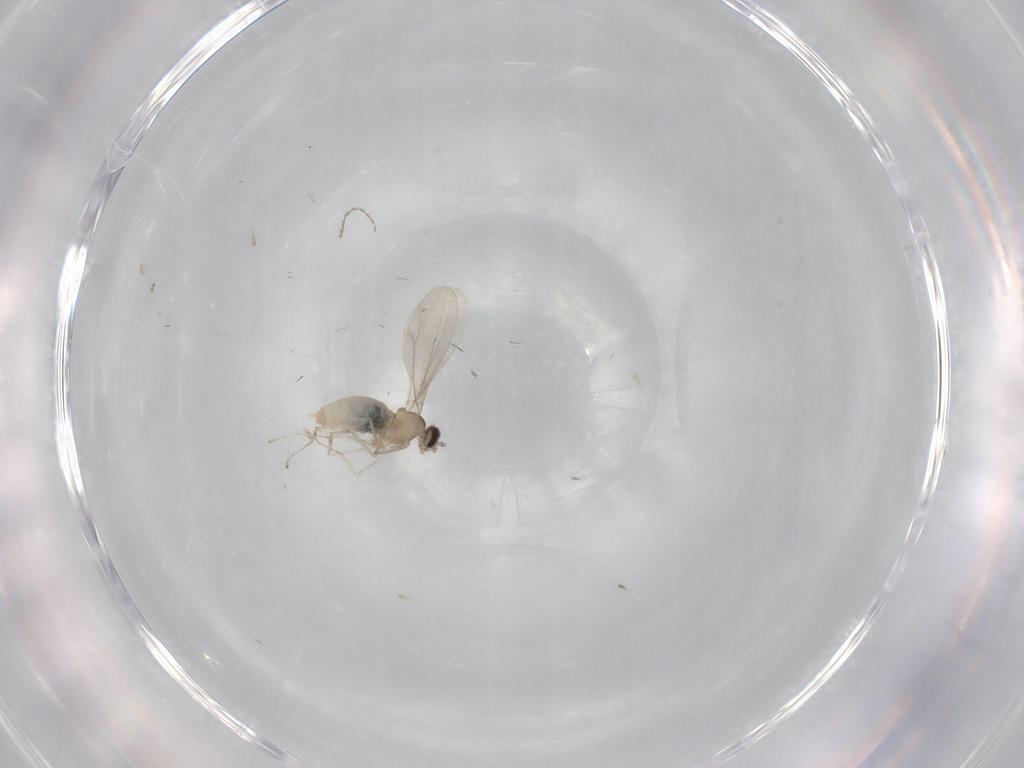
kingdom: Animalia
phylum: Arthropoda
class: Insecta
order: Diptera
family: Cecidomyiidae
